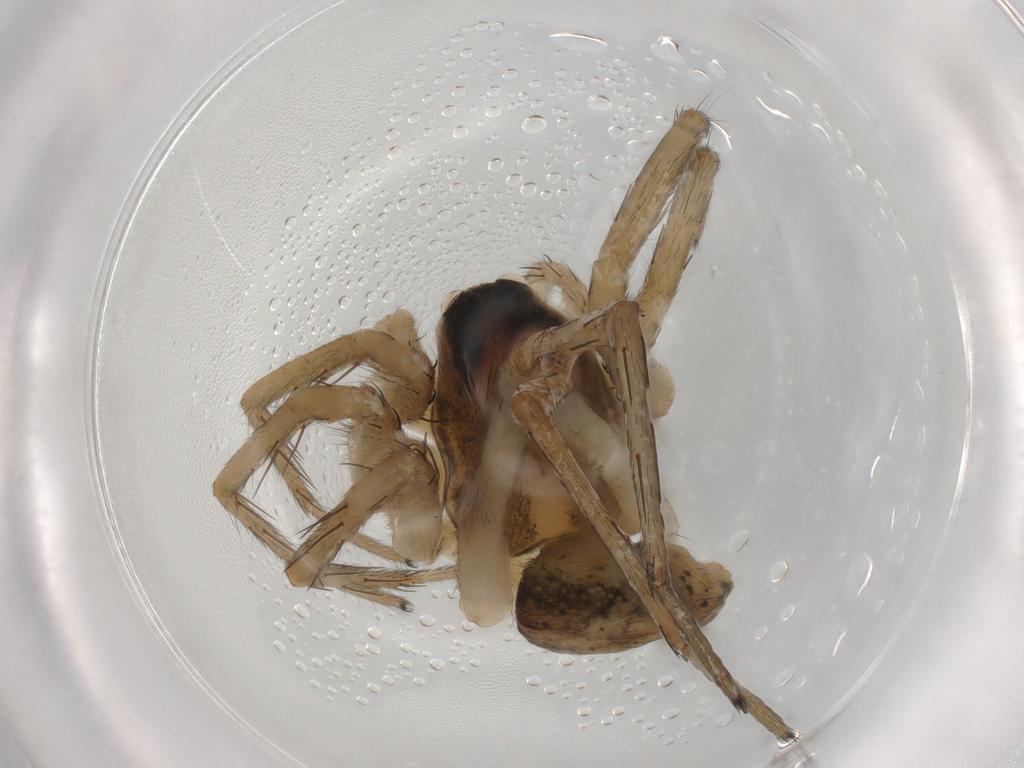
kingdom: Animalia
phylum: Arthropoda
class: Arachnida
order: Araneae
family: Lycosidae
